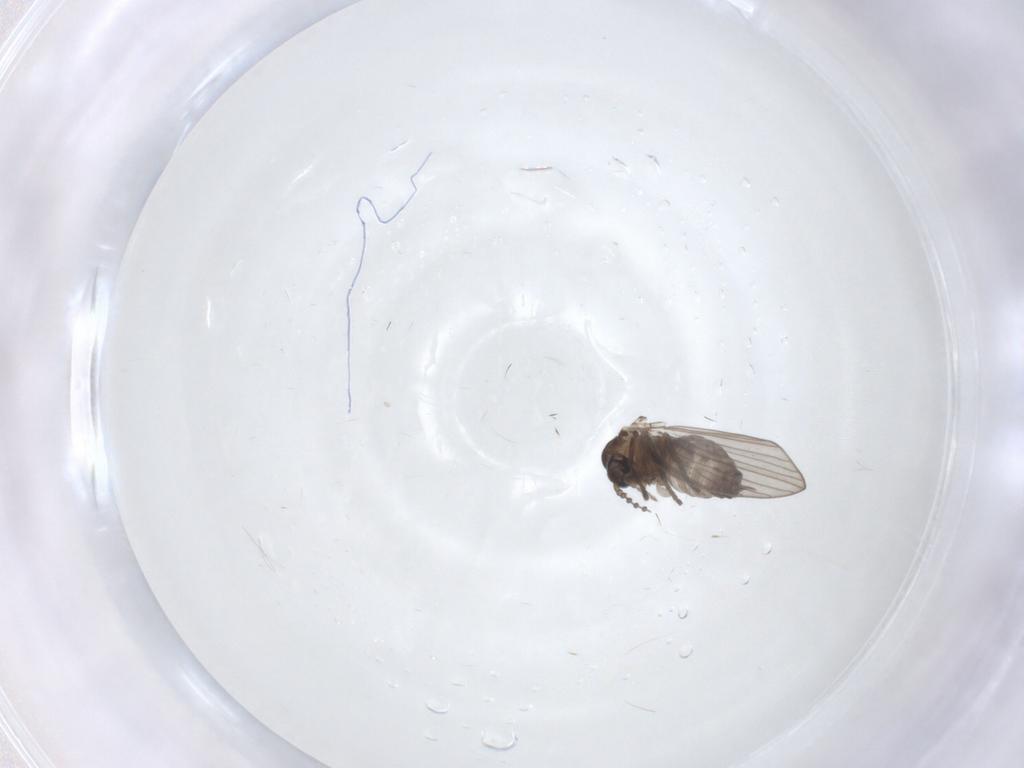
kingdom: Animalia
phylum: Arthropoda
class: Insecta
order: Diptera
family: Psychodidae
